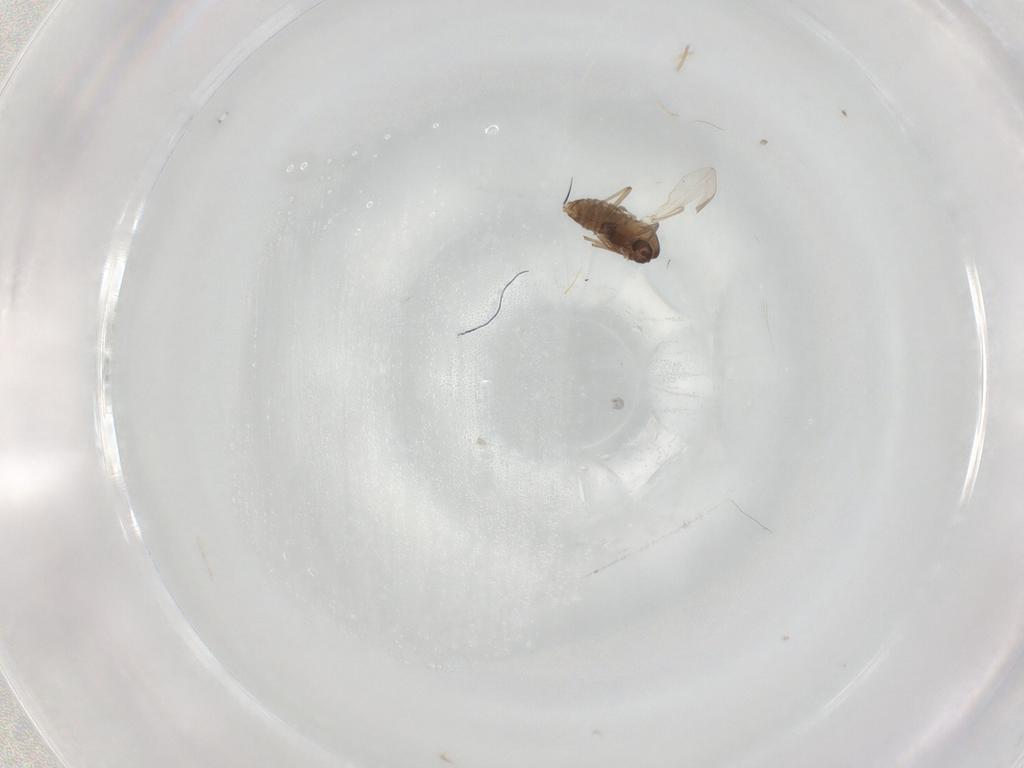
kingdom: Animalia
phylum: Arthropoda
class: Insecta
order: Diptera
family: Chironomidae
